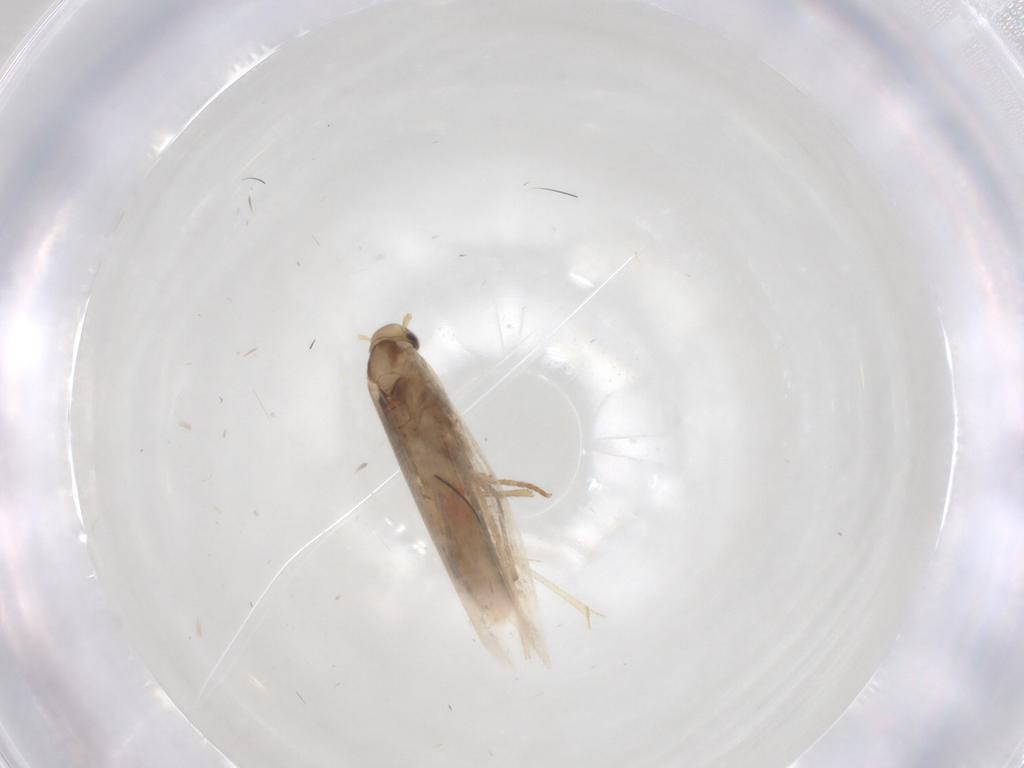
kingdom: Animalia
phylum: Arthropoda
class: Insecta
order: Lepidoptera
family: Gracillariidae
